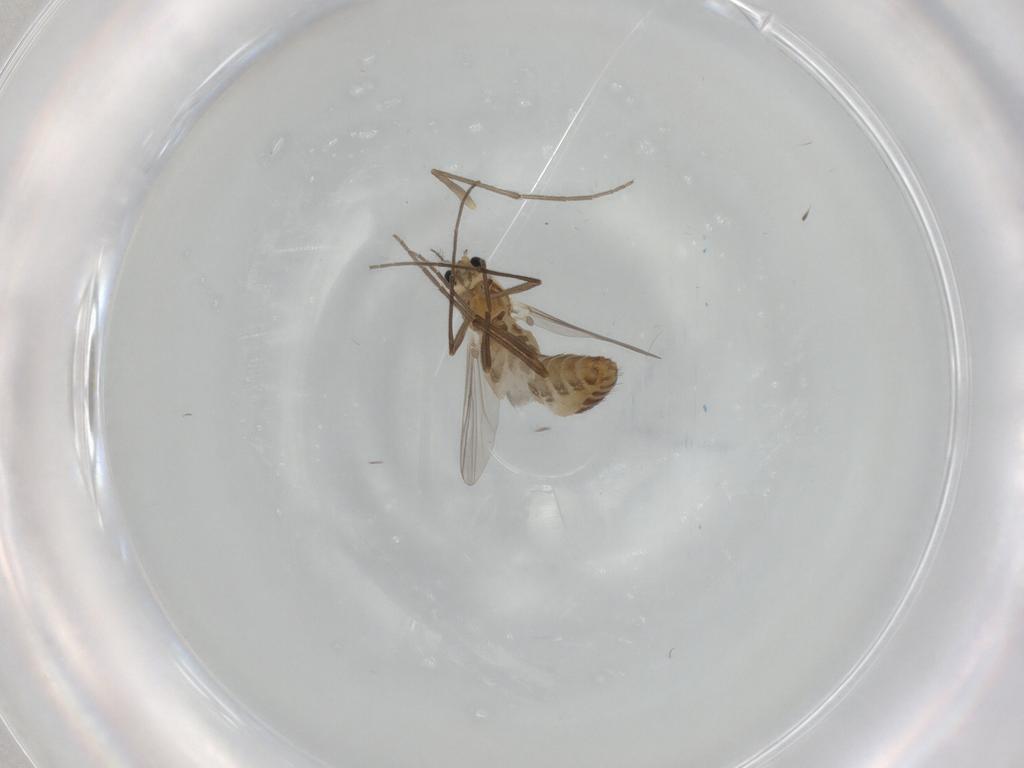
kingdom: Animalia
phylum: Arthropoda
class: Insecta
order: Diptera
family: Chironomidae
